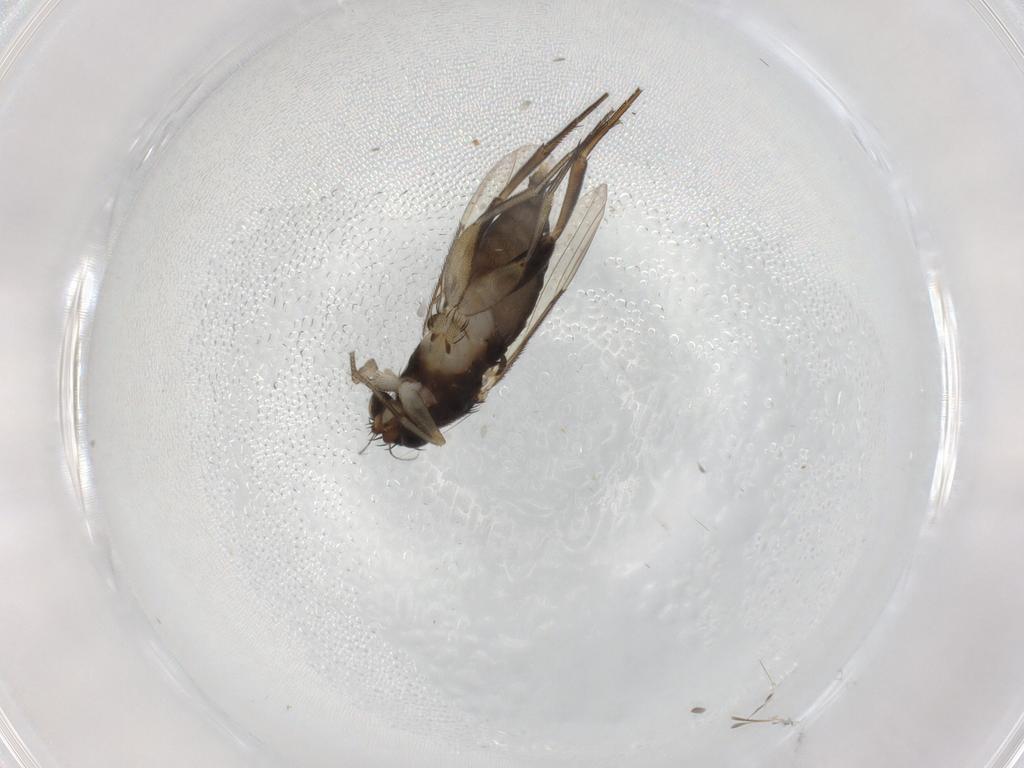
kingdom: Animalia
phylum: Arthropoda
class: Insecta
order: Diptera
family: Phoridae
